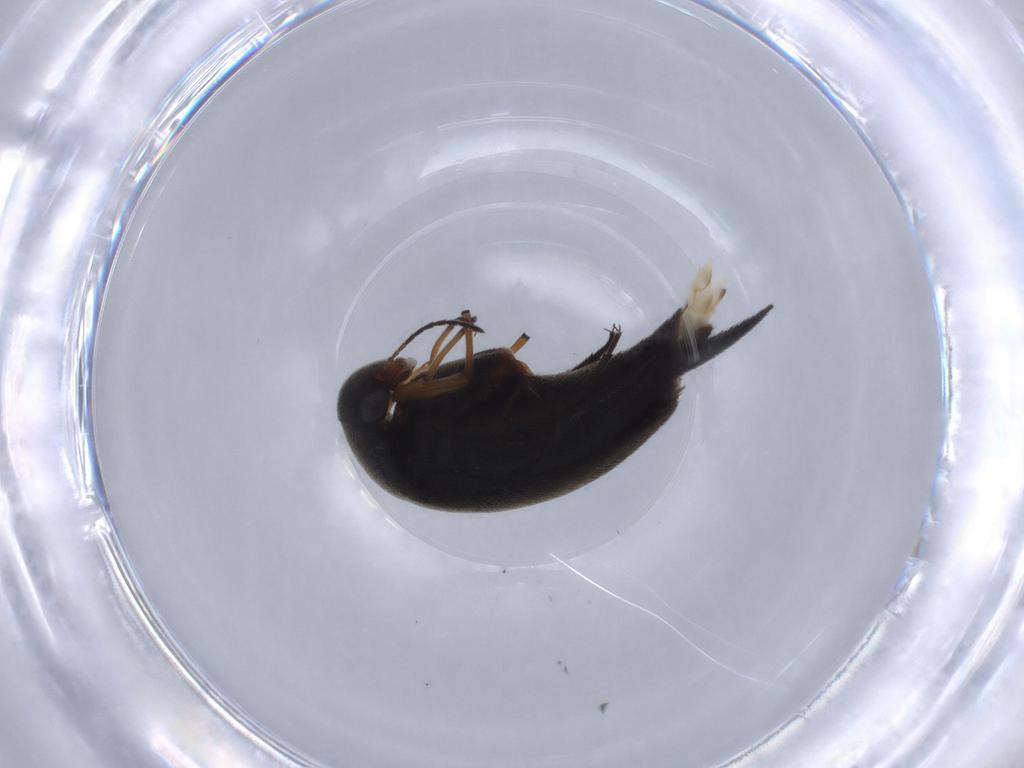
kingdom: Animalia
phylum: Arthropoda
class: Insecta
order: Coleoptera
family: Mordellidae
